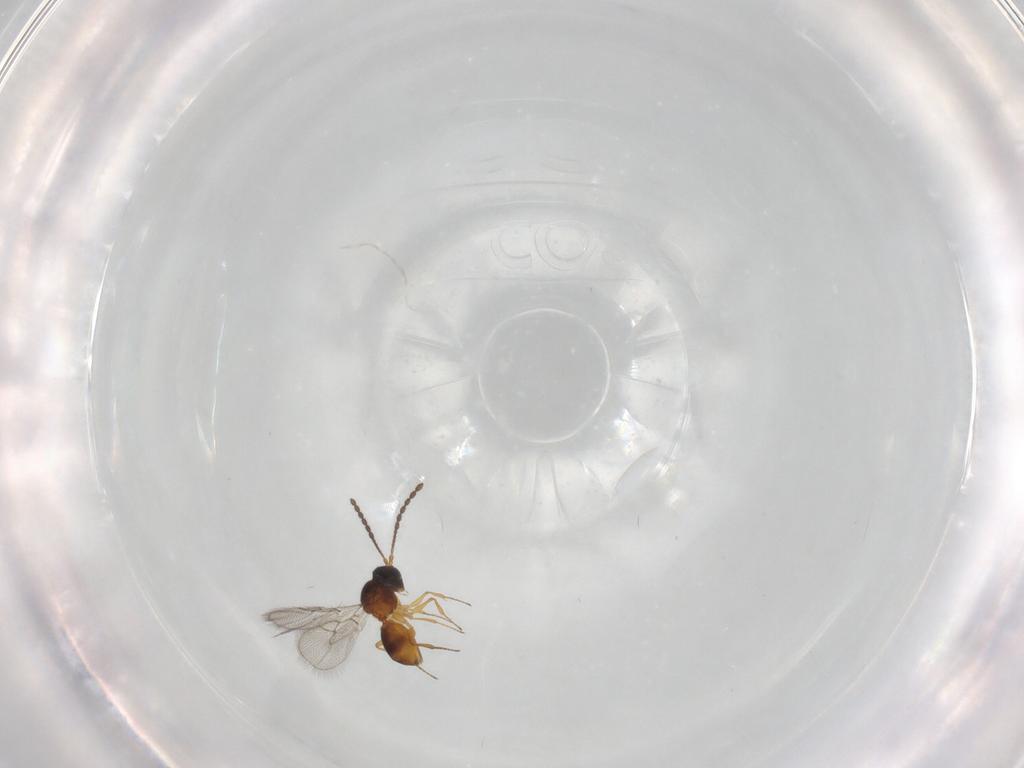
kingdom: Animalia
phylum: Arthropoda
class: Insecta
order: Hymenoptera
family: Figitidae
